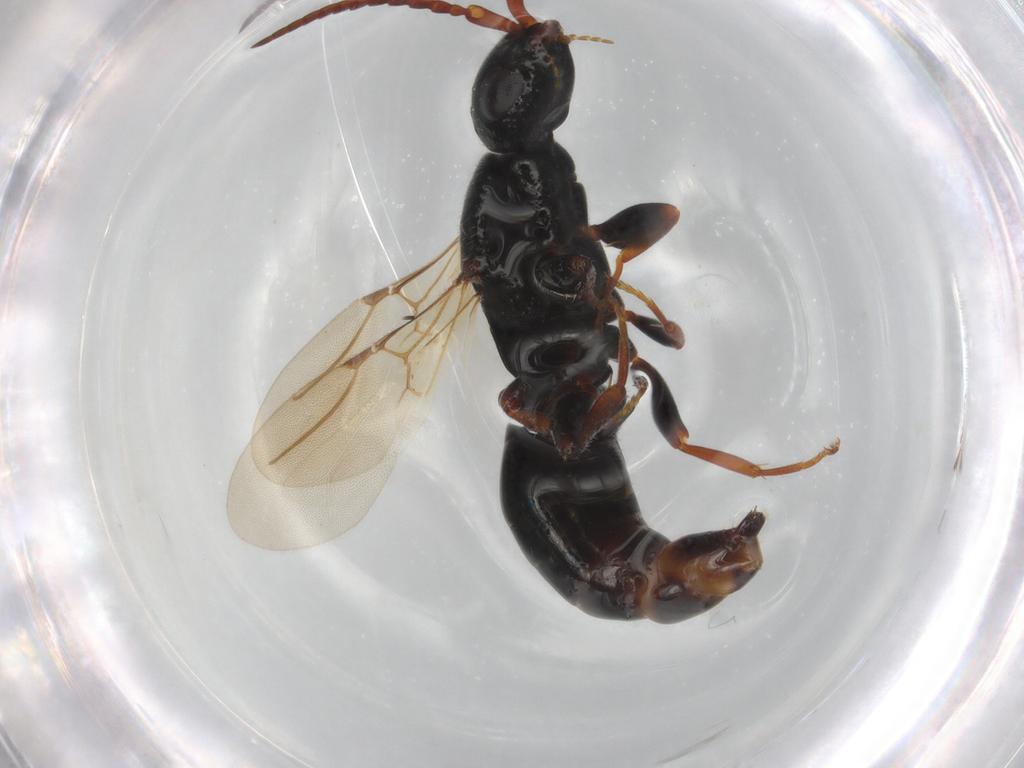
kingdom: Animalia
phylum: Arthropoda
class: Insecta
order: Hymenoptera
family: Bethylidae
